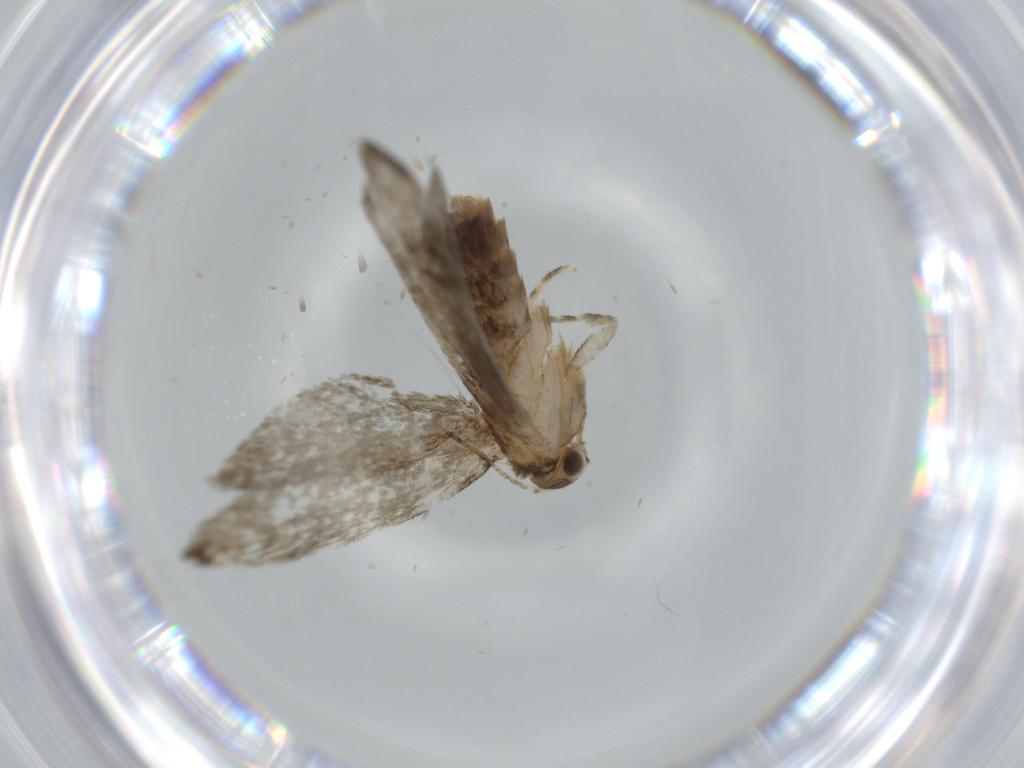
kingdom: Animalia
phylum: Arthropoda
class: Insecta
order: Lepidoptera
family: Tineidae
